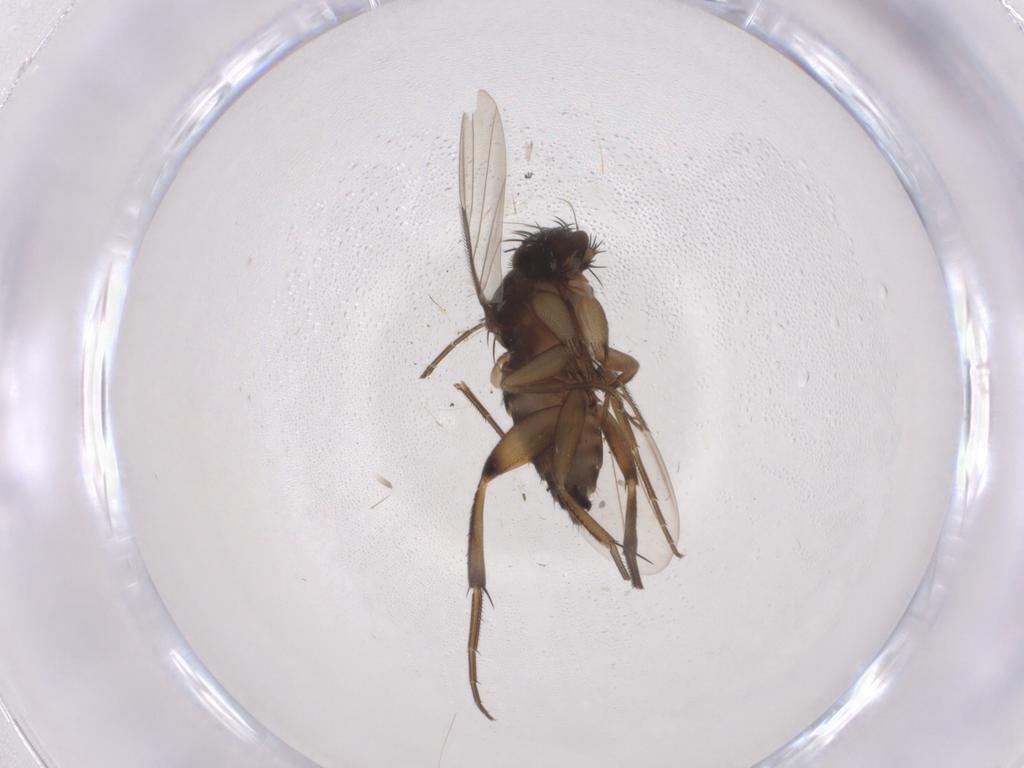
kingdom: Animalia
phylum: Arthropoda
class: Insecta
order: Diptera
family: Phoridae
